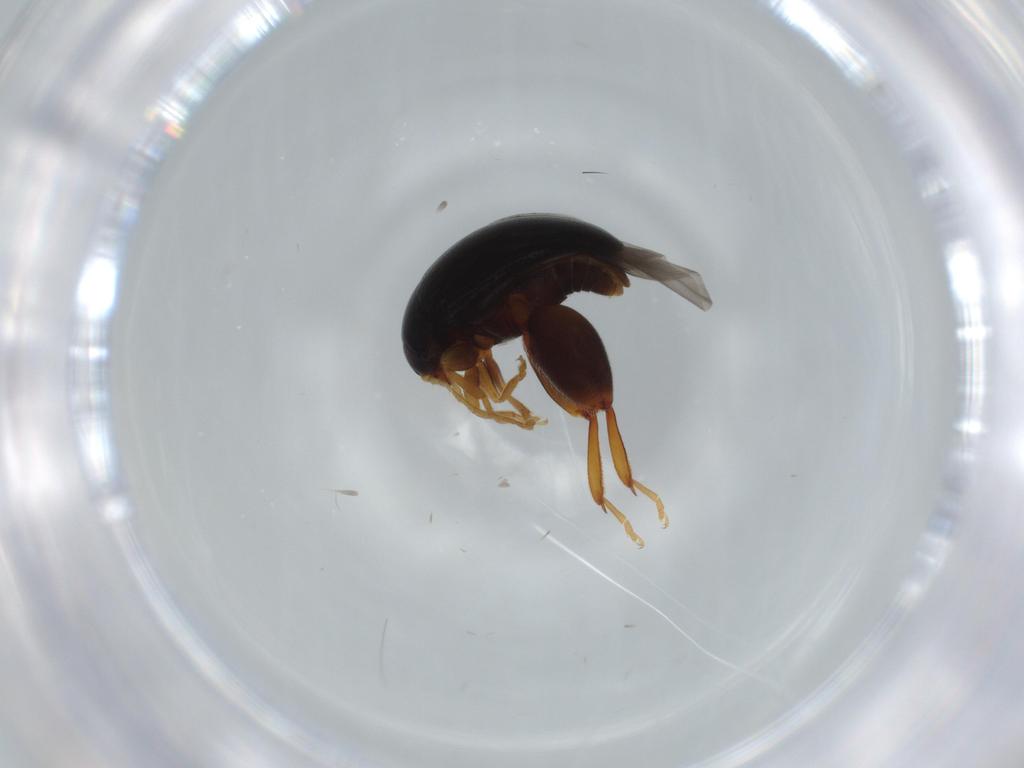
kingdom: Animalia
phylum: Arthropoda
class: Insecta
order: Coleoptera
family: Chrysomelidae
